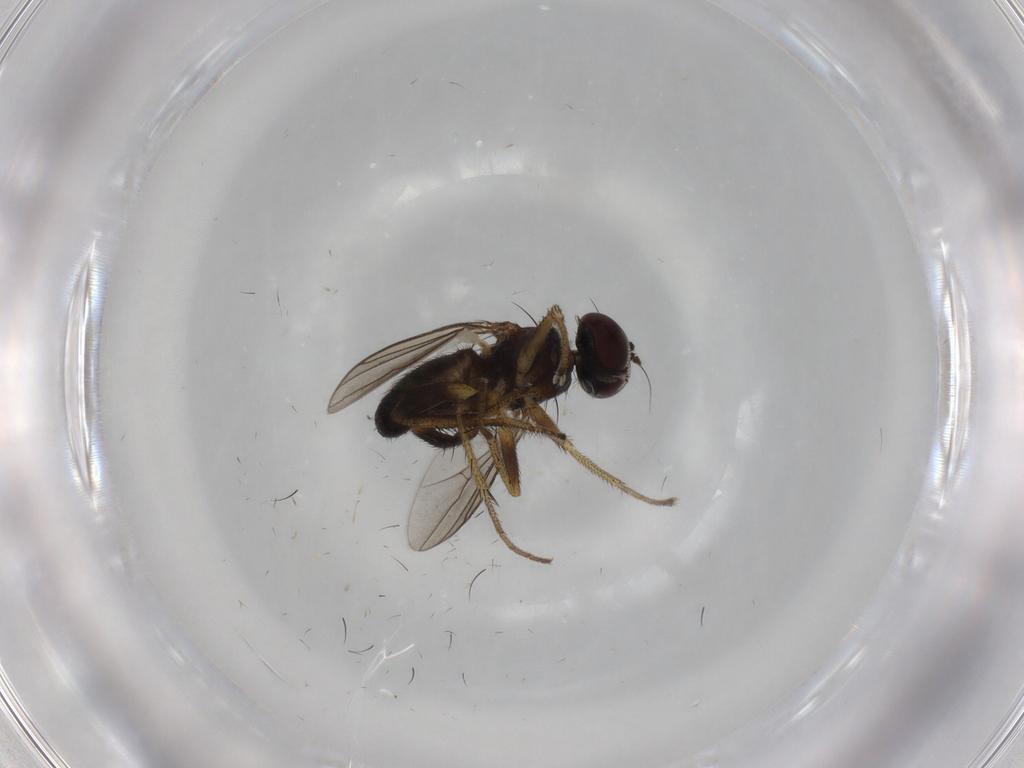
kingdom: Animalia
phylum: Arthropoda
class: Insecta
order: Diptera
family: Dolichopodidae
